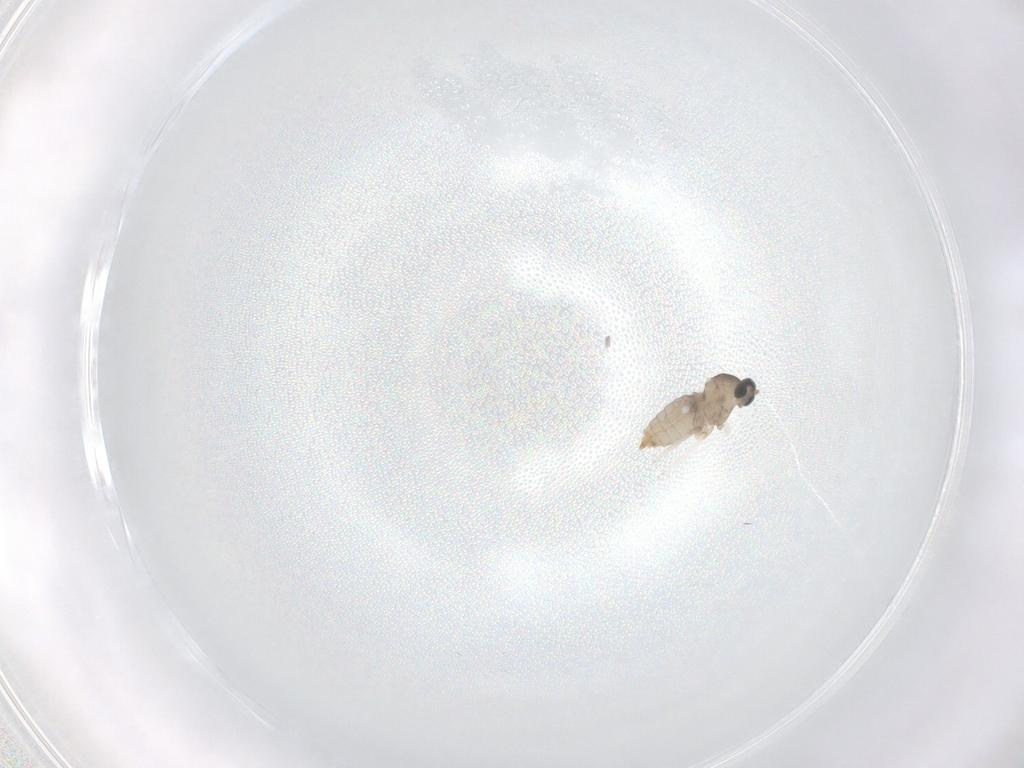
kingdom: Animalia
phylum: Arthropoda
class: Insecta
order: Diptera
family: Cecidomyiidae
